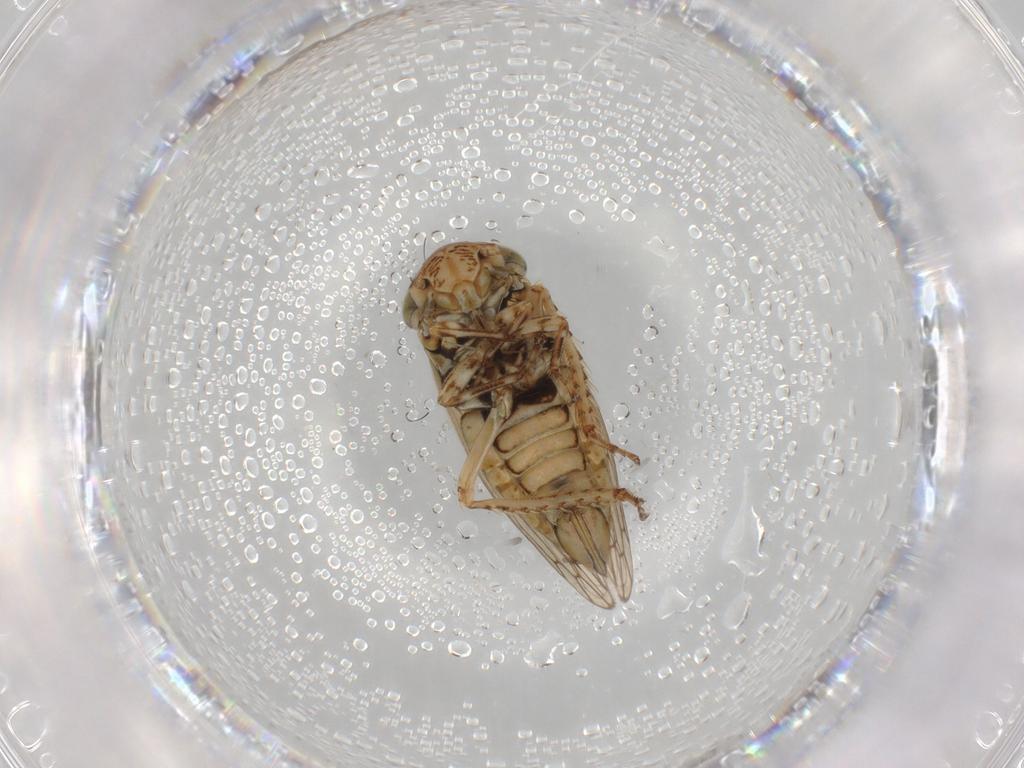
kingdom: Animalia
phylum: Arthropoda
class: Insecta
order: Hemiptera
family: Cicadellidae
